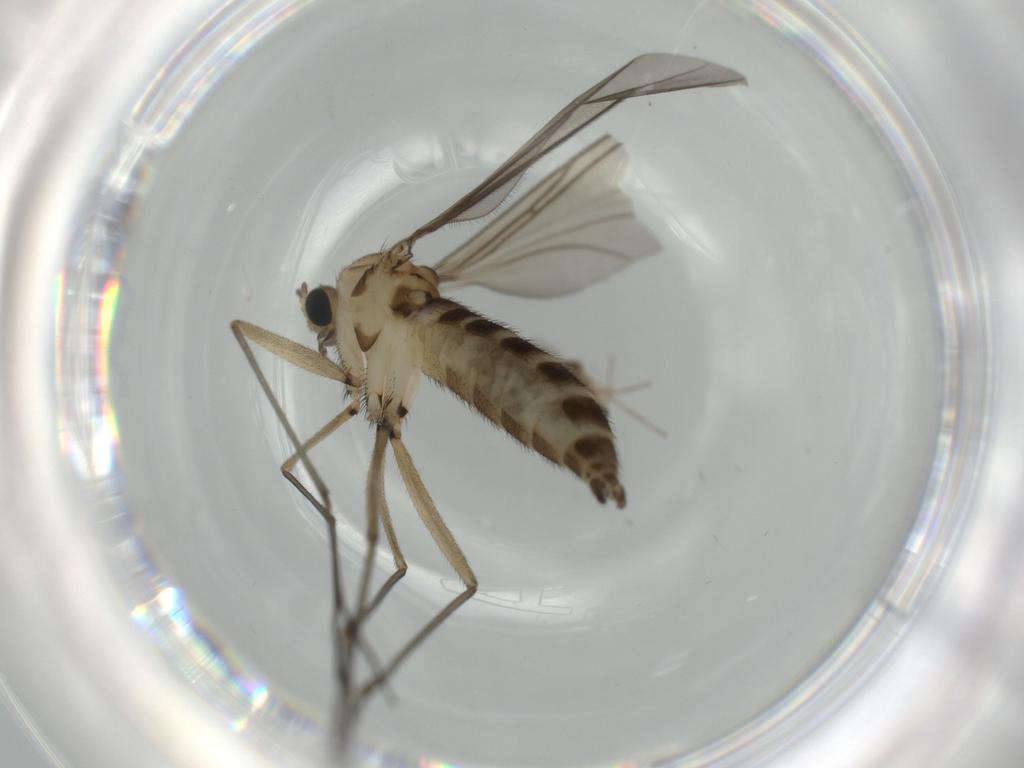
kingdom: Animalia
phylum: Arthropoda
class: Insecta
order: Diptera
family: Sciaridae
